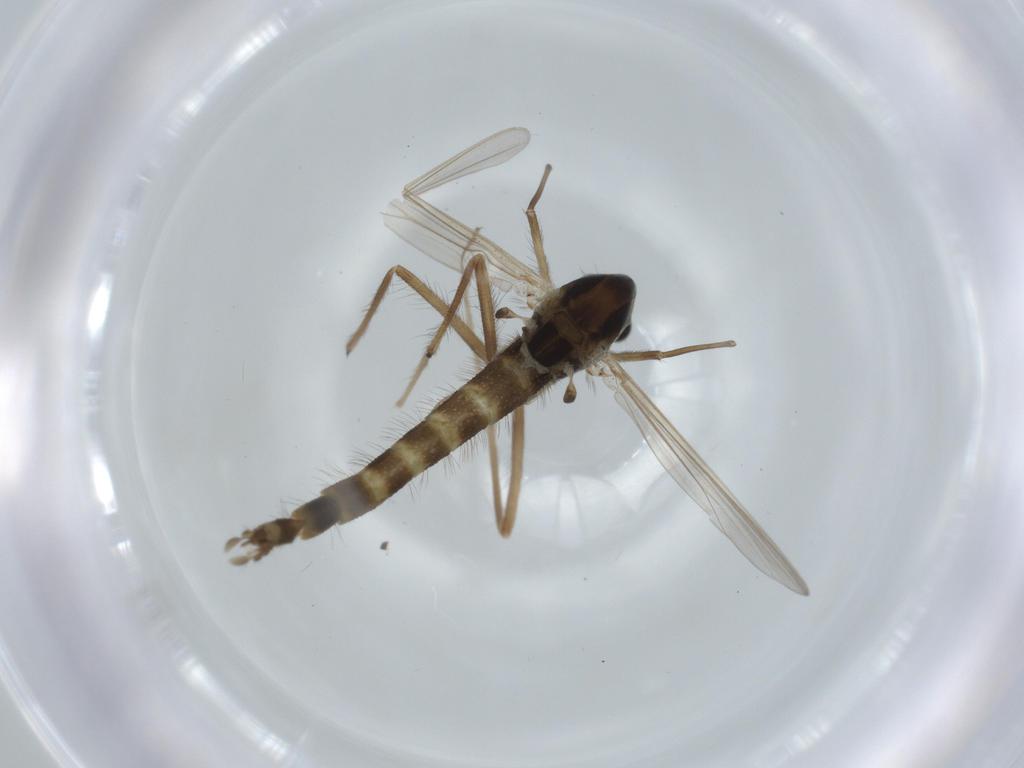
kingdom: Animalia
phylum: Arthropoda
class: Insecta
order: Diptera
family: Chironomidae
